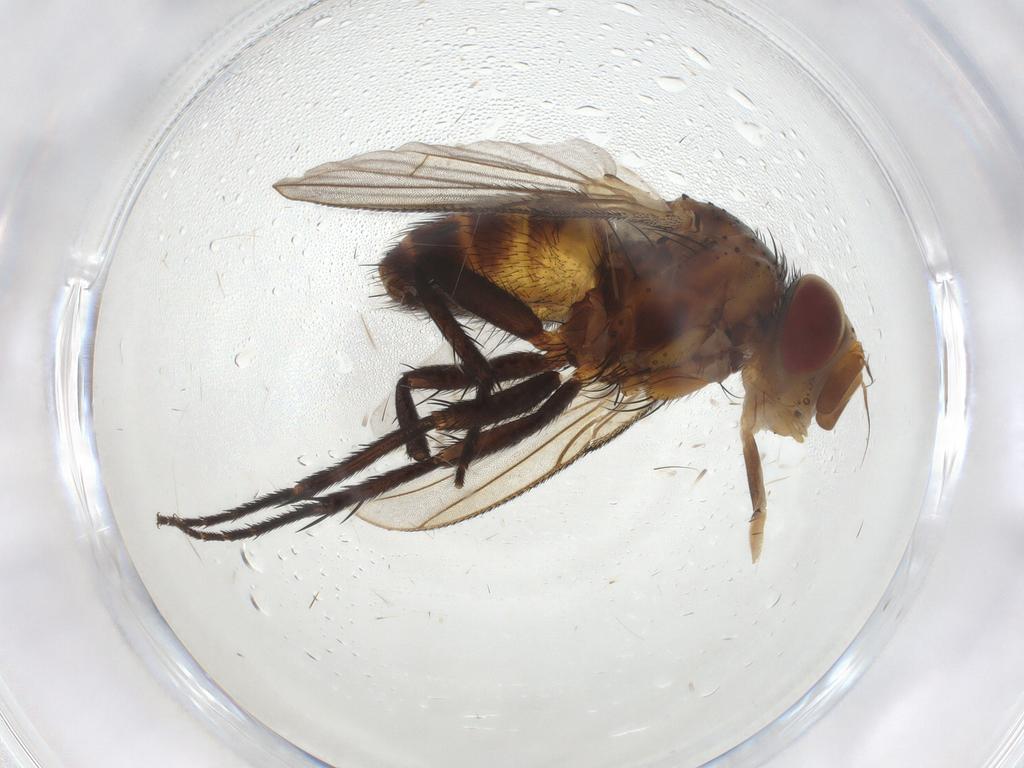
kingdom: Animalia
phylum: Arthropoda
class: Insecta
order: Diptera
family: Tachinidae
